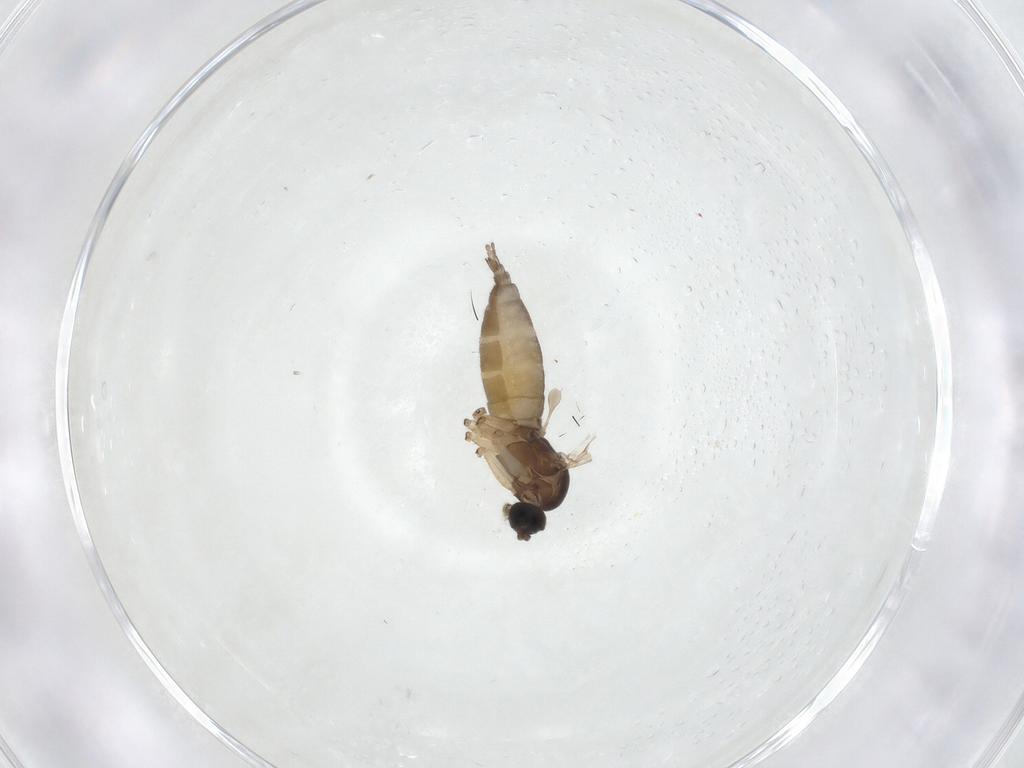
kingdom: Animalia
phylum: Arthropoda
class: Insecta
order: Diptera
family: Sciaridae
